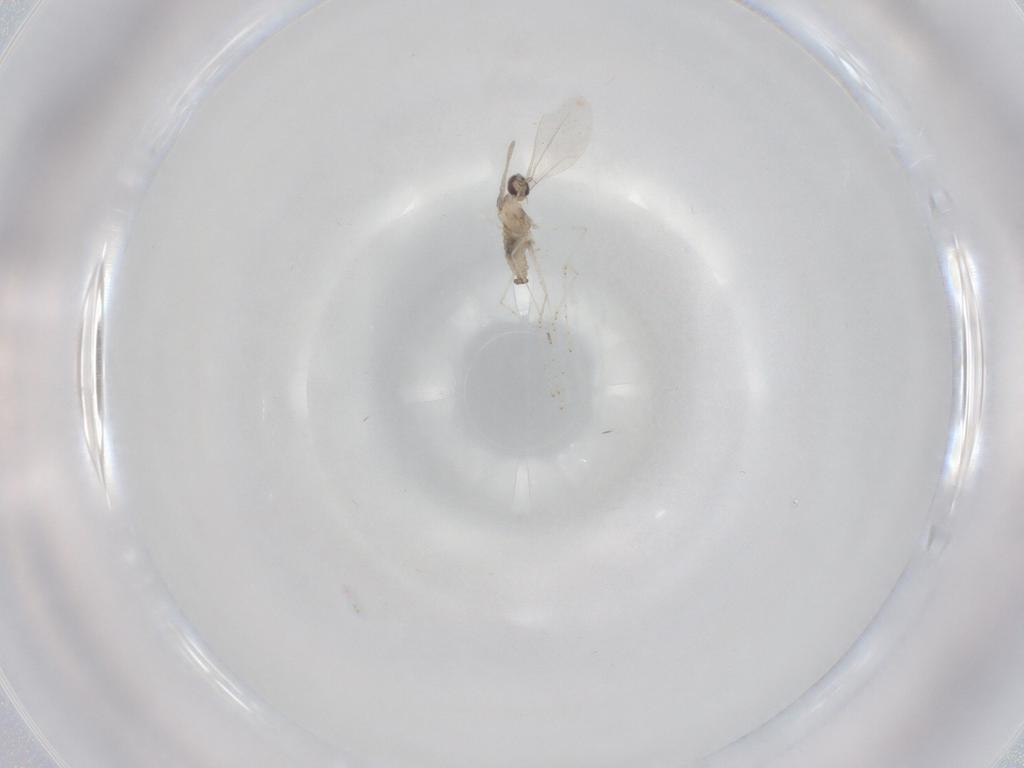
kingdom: Animalia
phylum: Arthropoda
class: Insecta
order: Diptera
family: Cecidomyiidae
